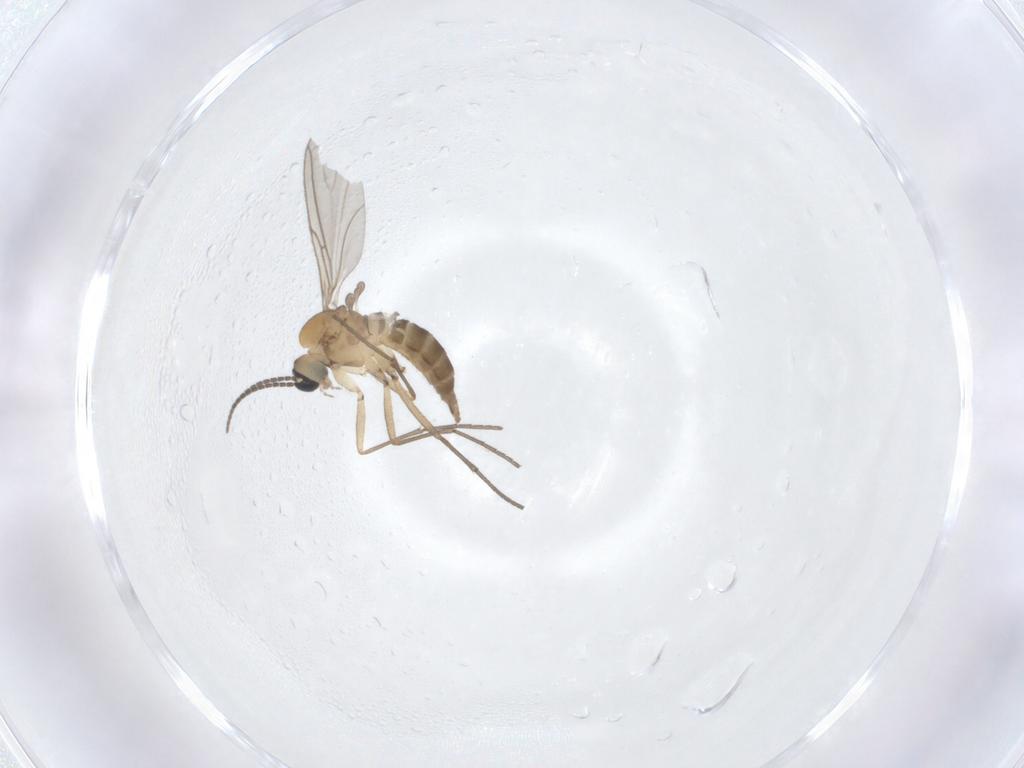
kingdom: Animalia
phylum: Arthropoda
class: Insecta
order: Diptera
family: Sciaridae
